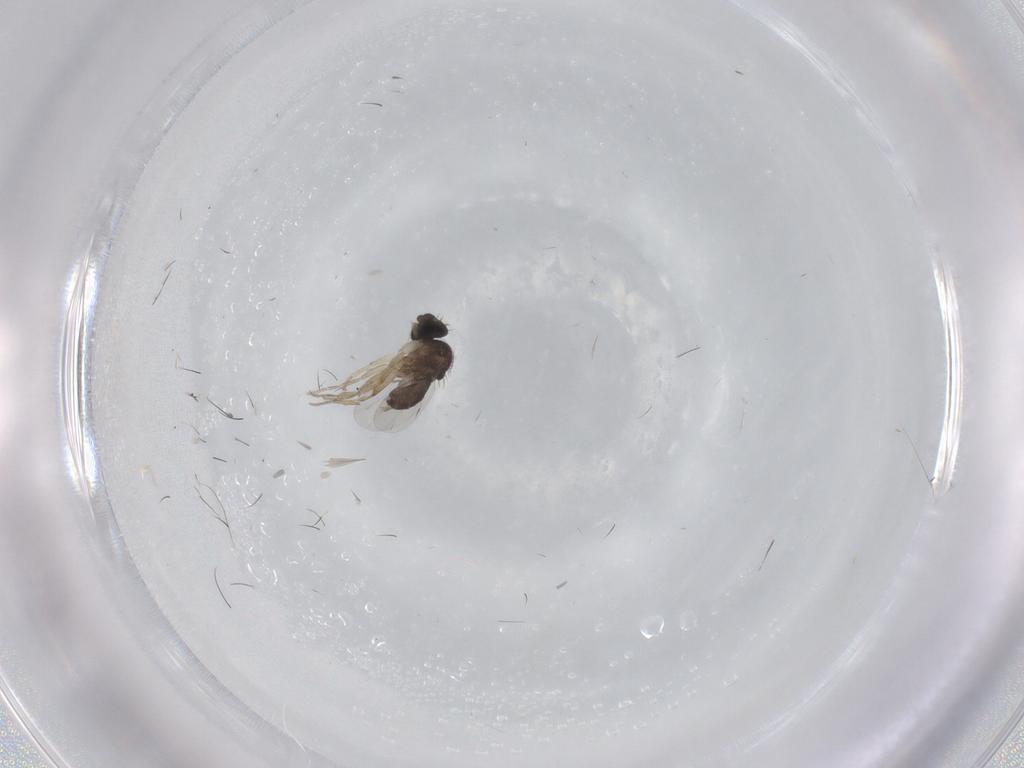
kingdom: Animalia
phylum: Arthropoda
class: Insecta
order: Diptera
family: Phoridae
